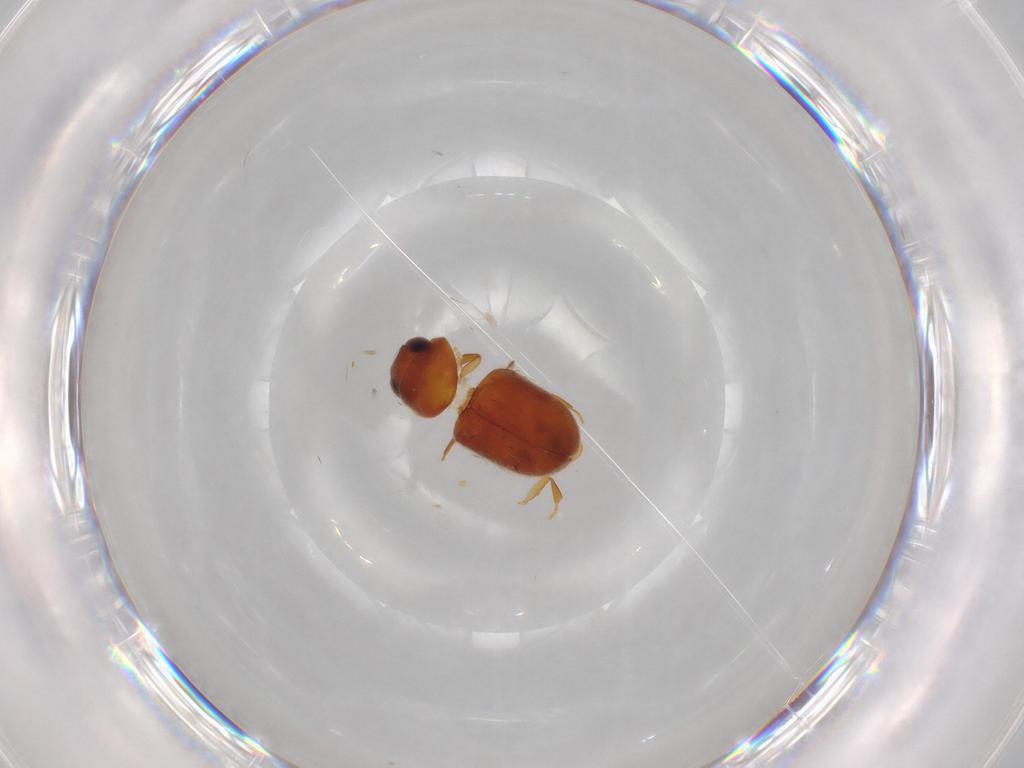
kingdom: Animalia
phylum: Arthropoda
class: Insecta
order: Coleoptera
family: Ptinidae
